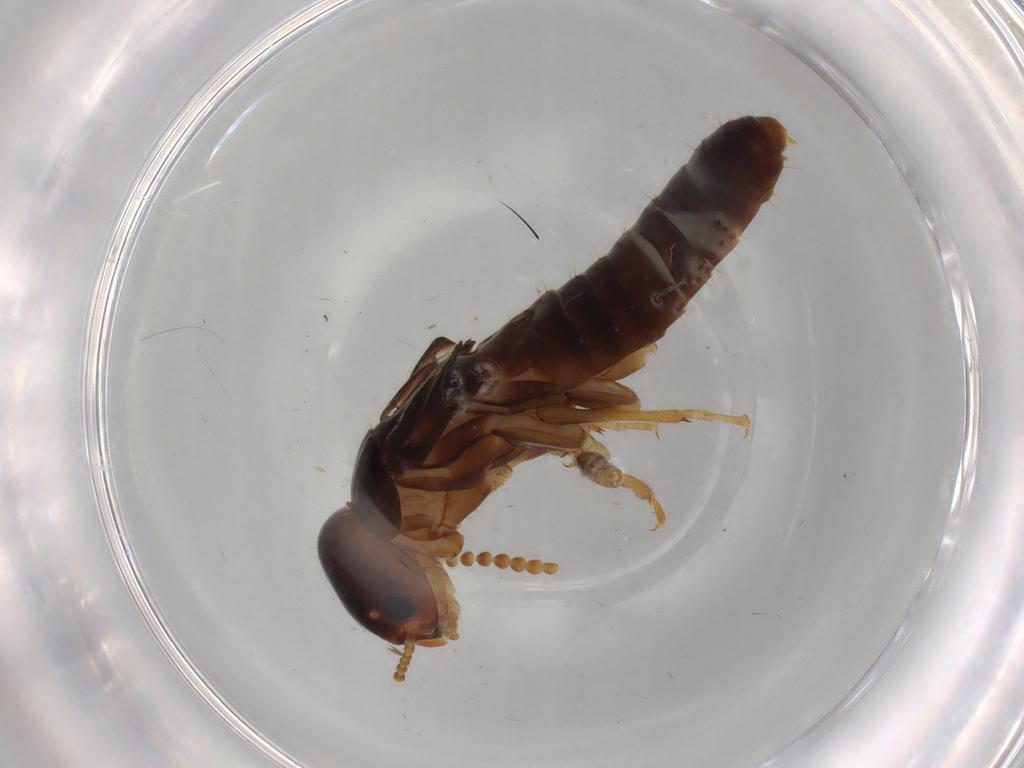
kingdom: Animalia
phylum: Arthropoda
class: Insecta
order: Blattodea
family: Kalotermitidae
